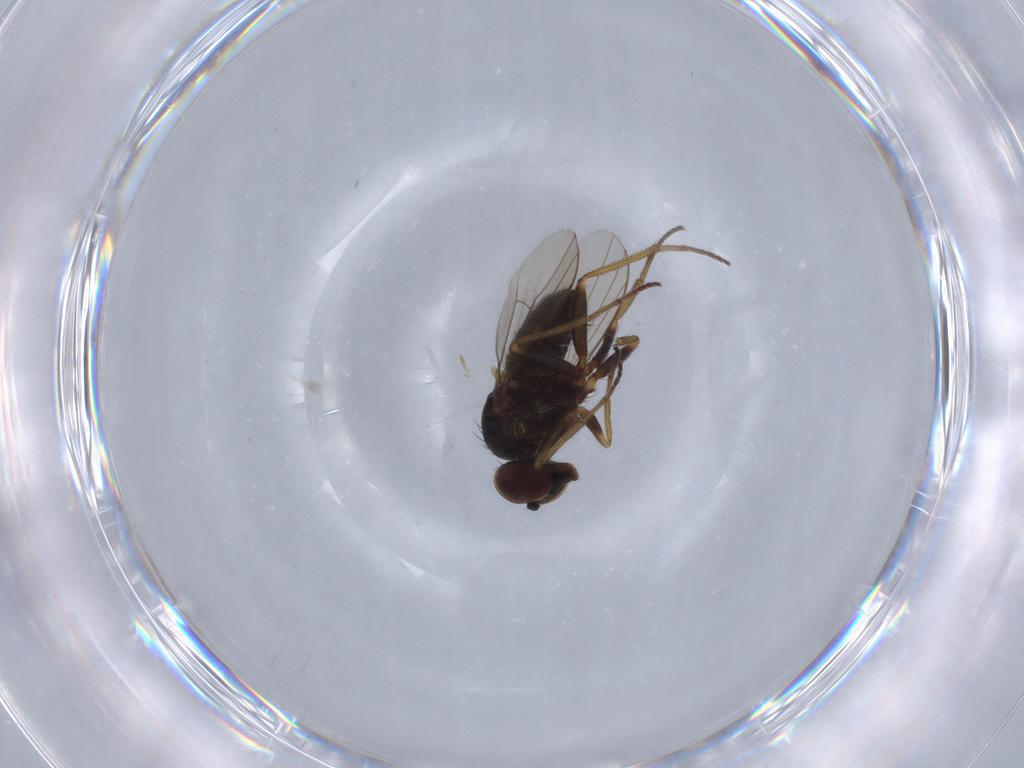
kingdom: Animalia
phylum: Arthropoda
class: Insecta
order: Diptera
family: Dolichopodidae
